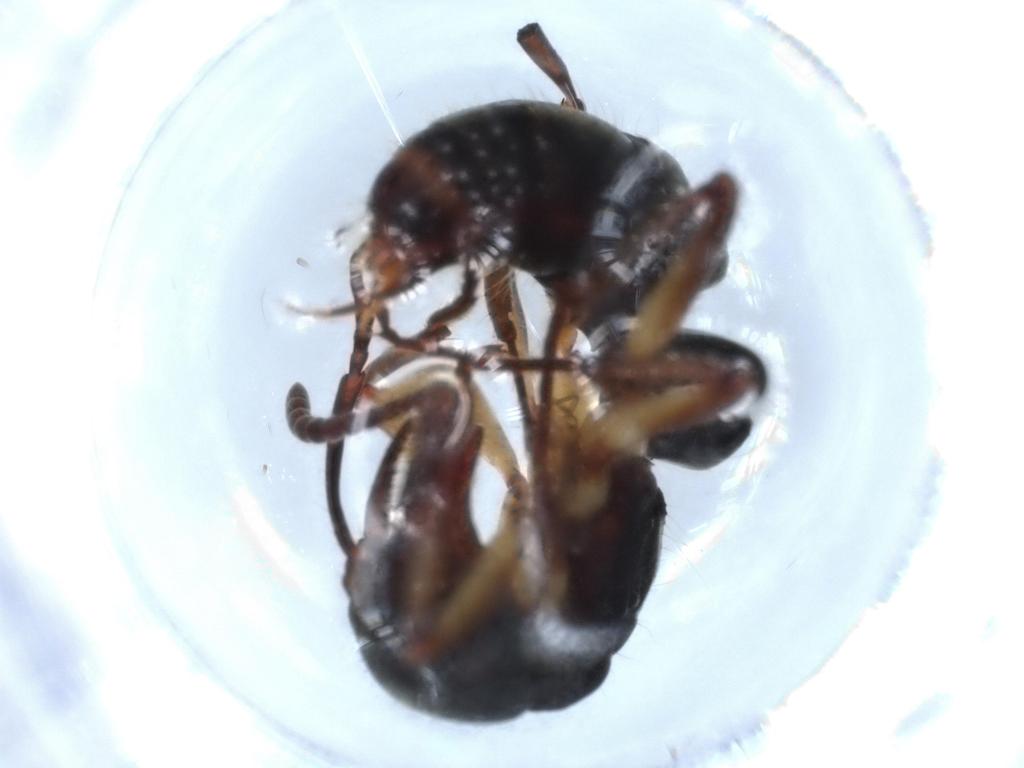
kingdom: Animalia
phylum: Arthropoda
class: Insecta
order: Hymenoptera
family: Formicidae
